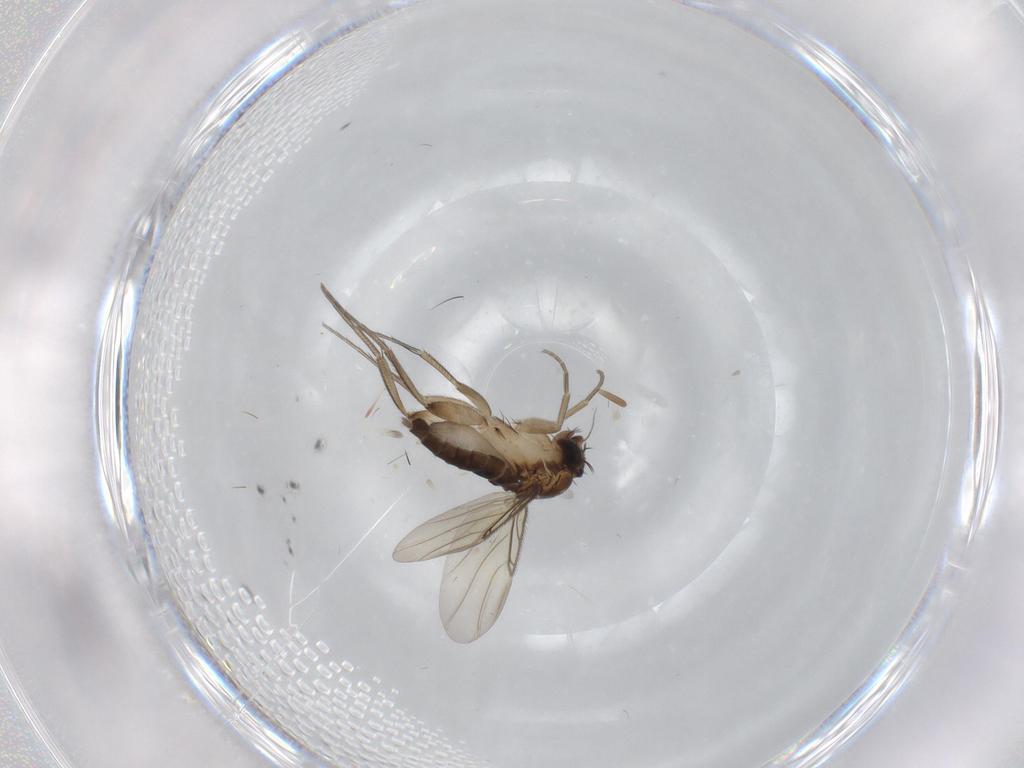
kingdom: Animalia
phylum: Arthropoda
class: Insecta
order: Diptera
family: Phoridae
